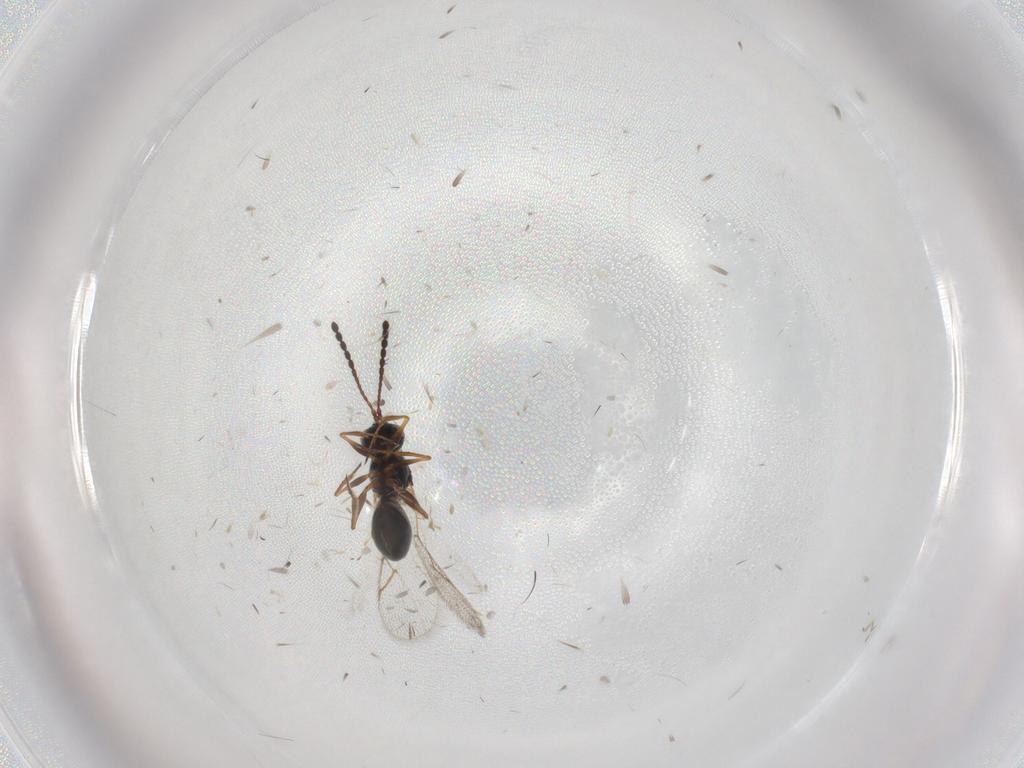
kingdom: Animalia
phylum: Arthropoda
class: Insecta
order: Hymenoptera
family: Figitidae
